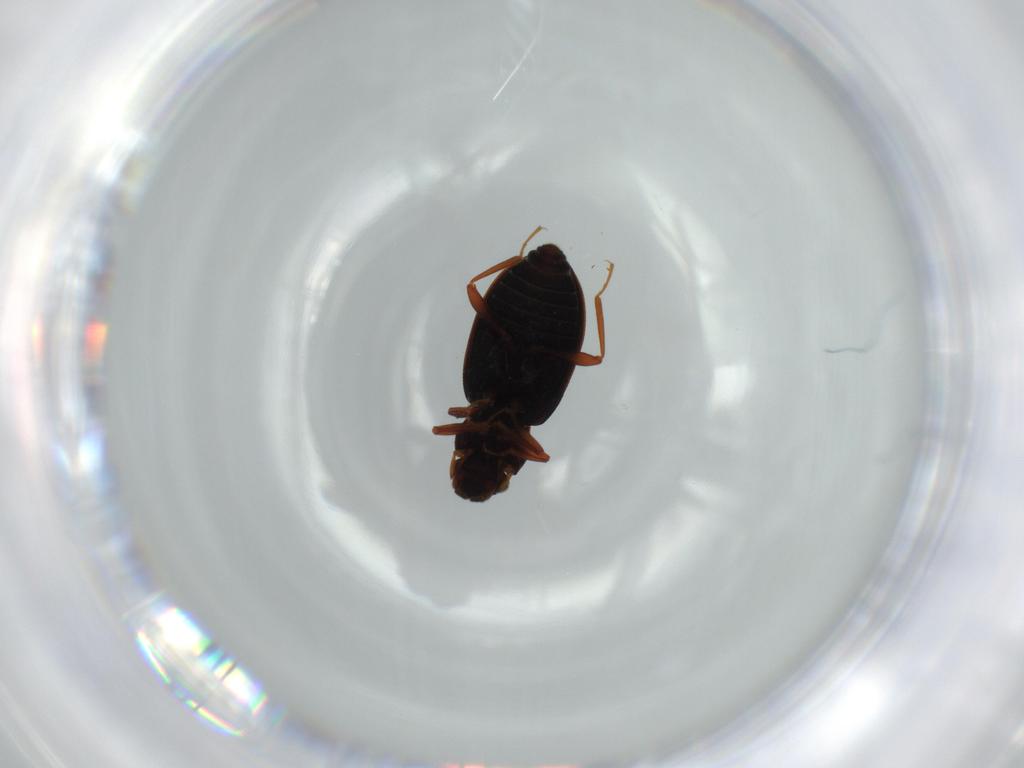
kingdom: Animalia
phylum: Arthropoda
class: Insecta
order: Coleoptera
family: Hydraenidae
